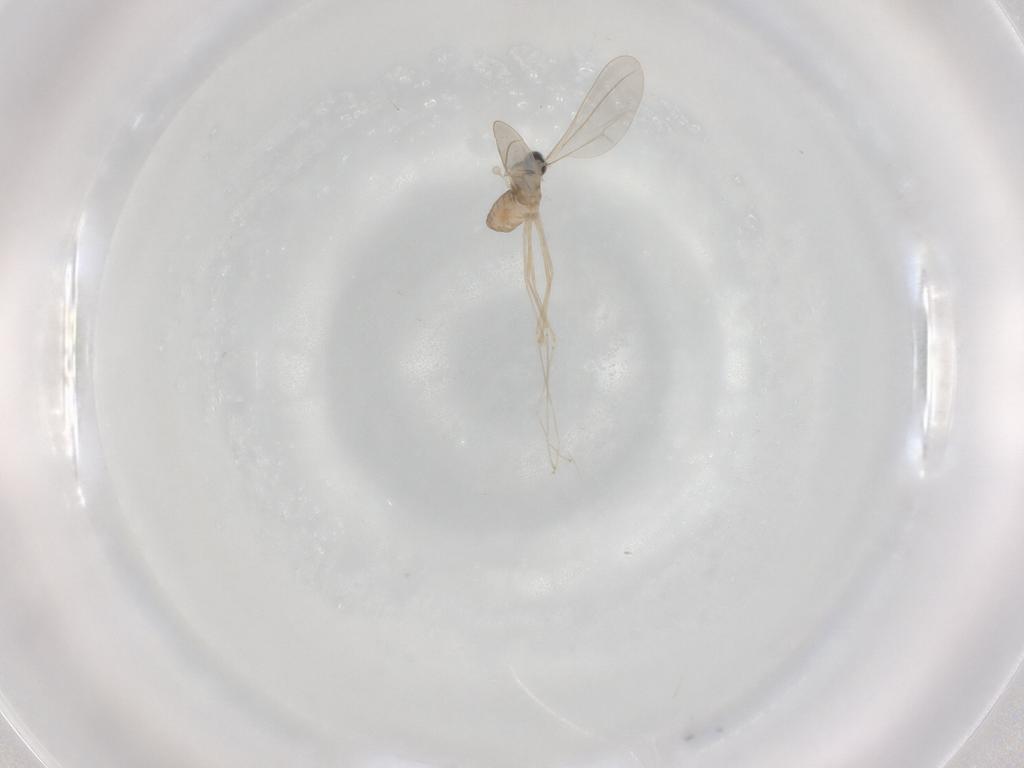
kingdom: Animalia
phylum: Arthropoda
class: Insecta
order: Diptera
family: Cecidomyiidae
